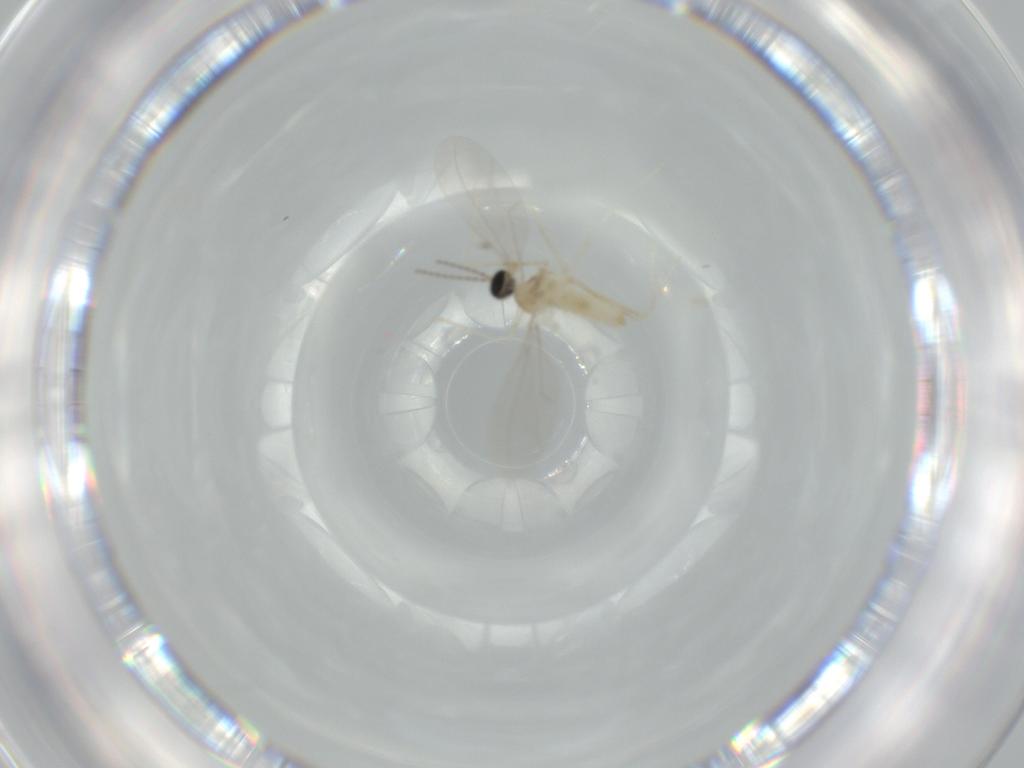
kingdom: Animalia
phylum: Arthropoda
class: Insecta
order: Diptera
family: Cecidomyiidae
